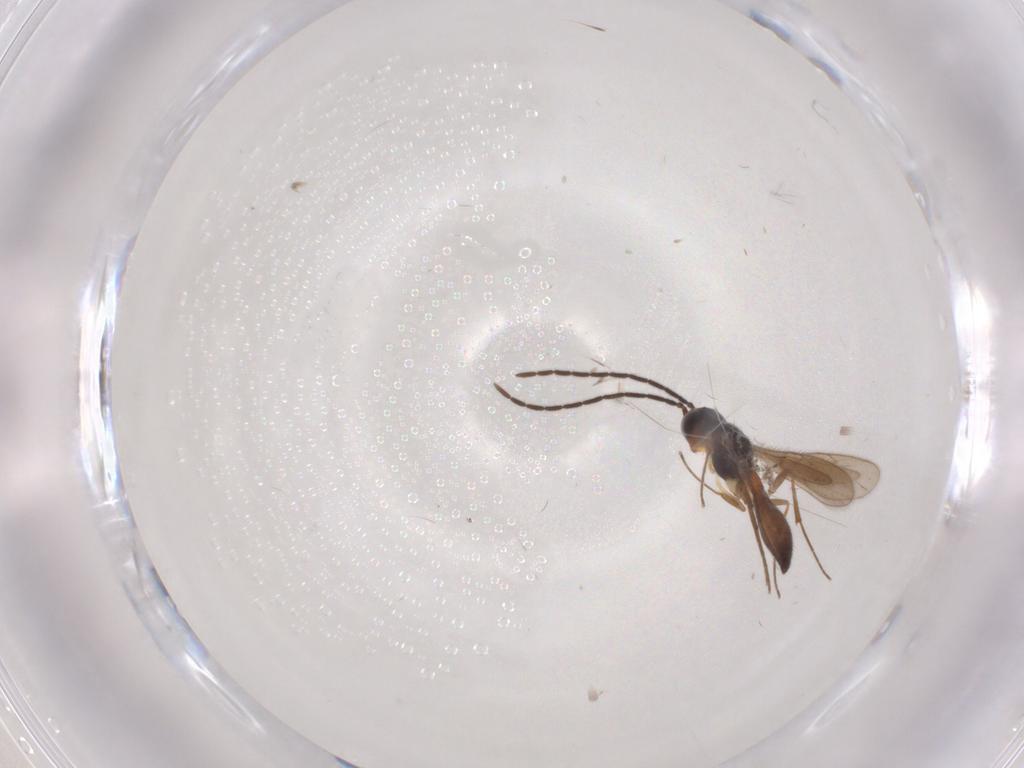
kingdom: Animalia
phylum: Arthropoda
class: Insecta
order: Hymenoptera
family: Scelionidae
